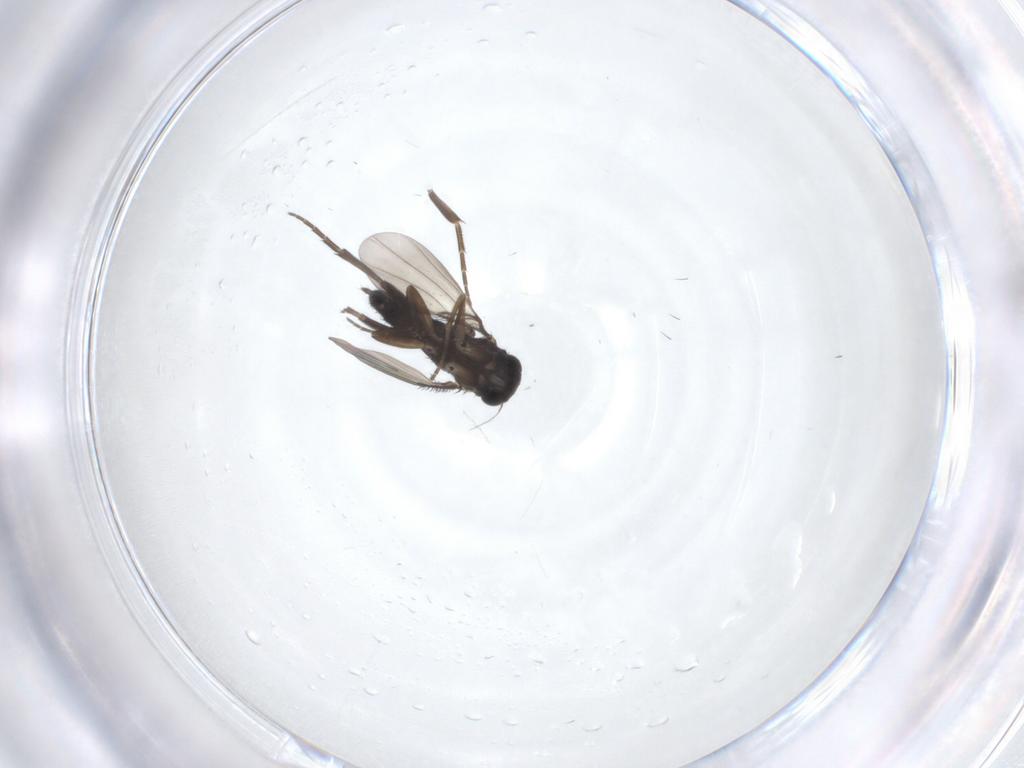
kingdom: Animalia
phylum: Arthropoda
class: Insecta
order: Diptera
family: Phoridae
